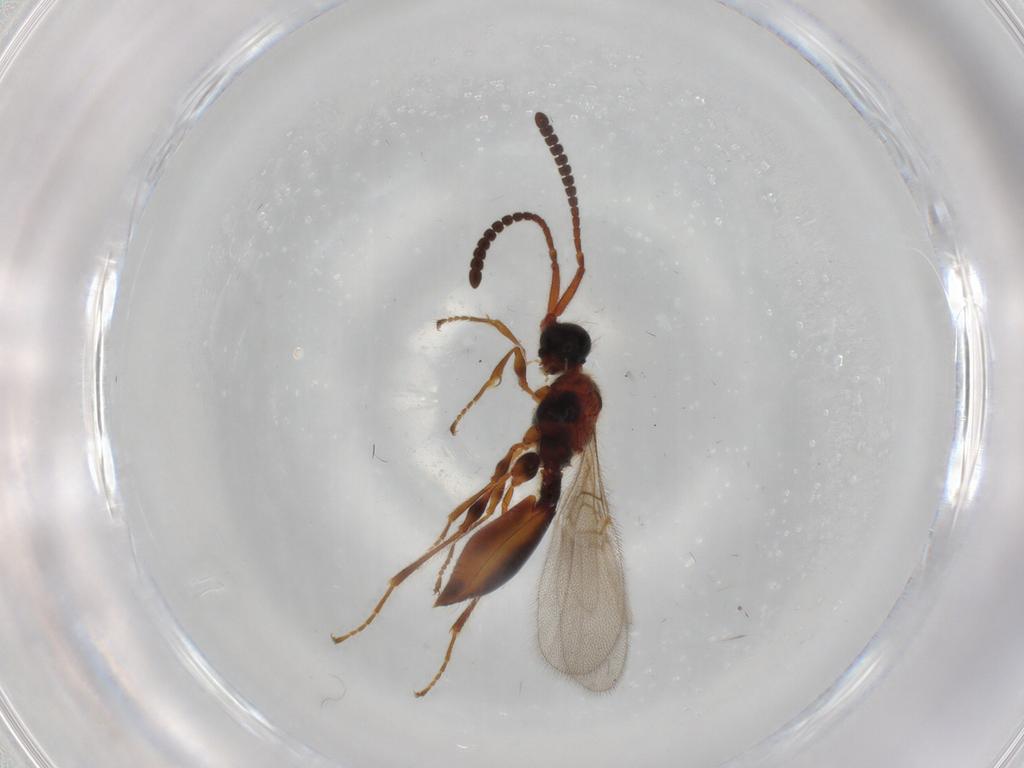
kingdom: Animalia
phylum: Arthropoda
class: Insecta
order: Hymenoptera
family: Diapriidae
